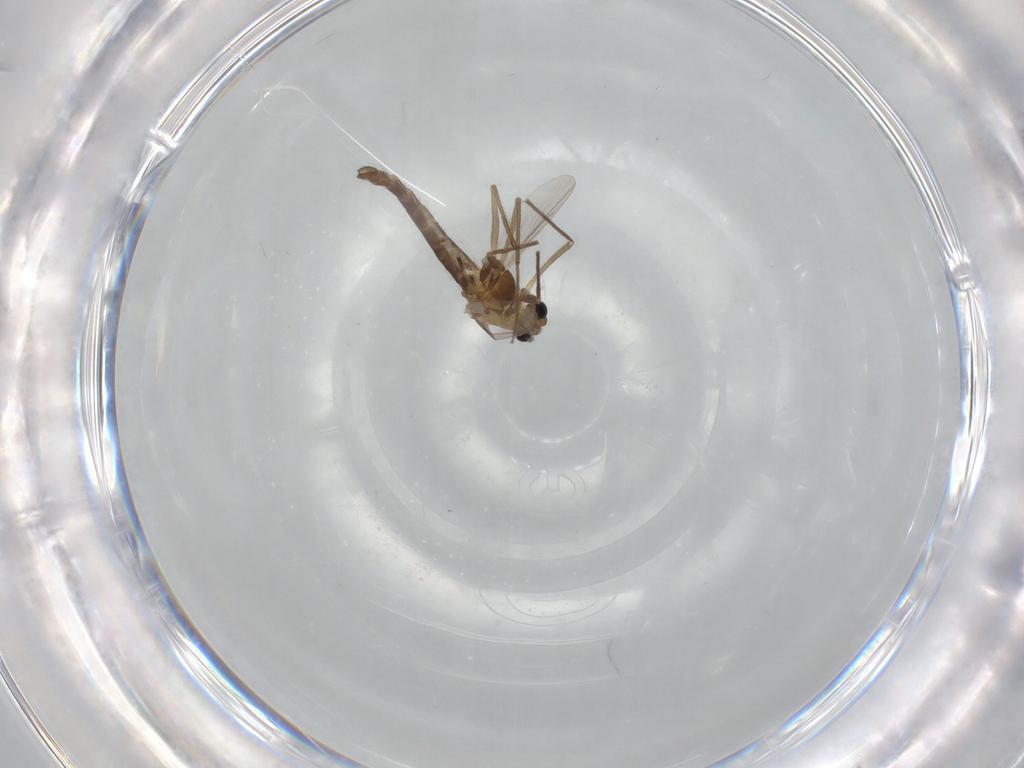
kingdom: Animalia
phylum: Arthropoda
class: Insecta
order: Diptera
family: Chironomidae
